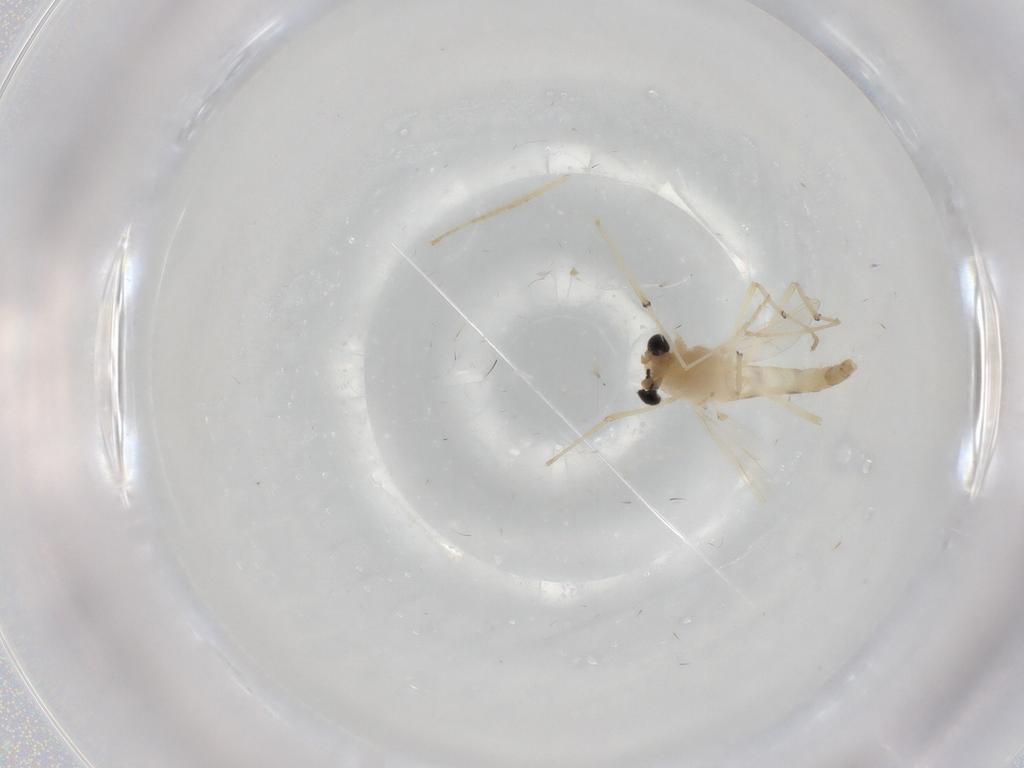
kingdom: Animalia
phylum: Arthropoda
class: Insecta
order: Diptera
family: Chironomidae
